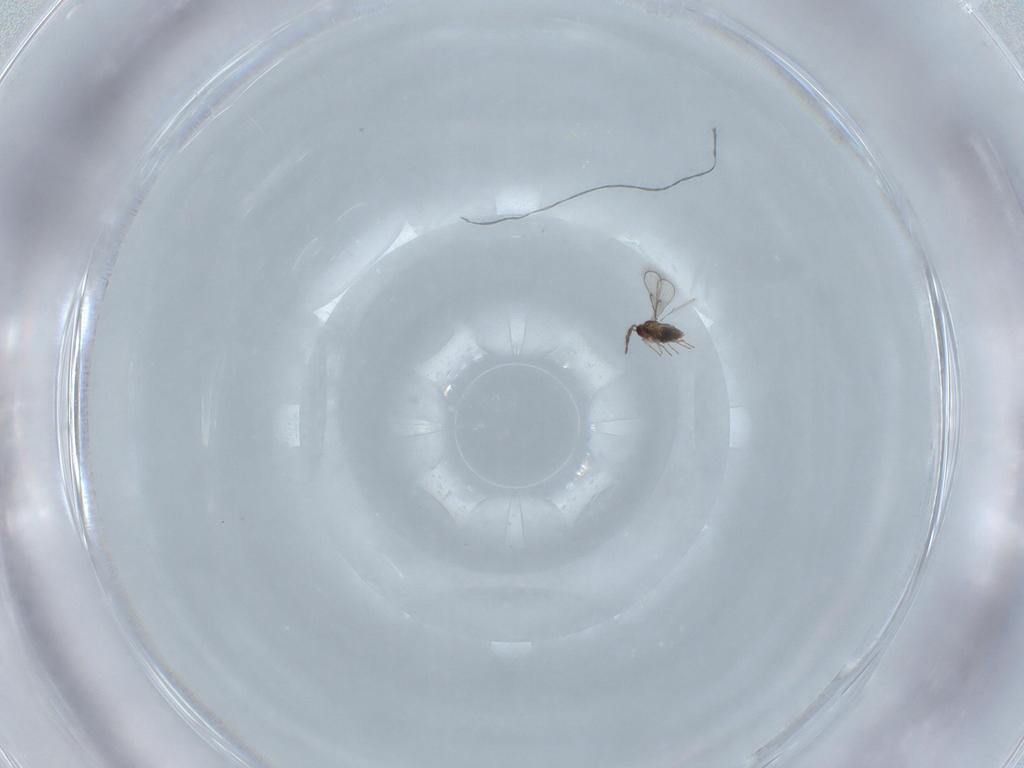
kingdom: Animalia
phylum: Arthropoda
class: Insecta
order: Hymenoptera
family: Trichogrammatidae
